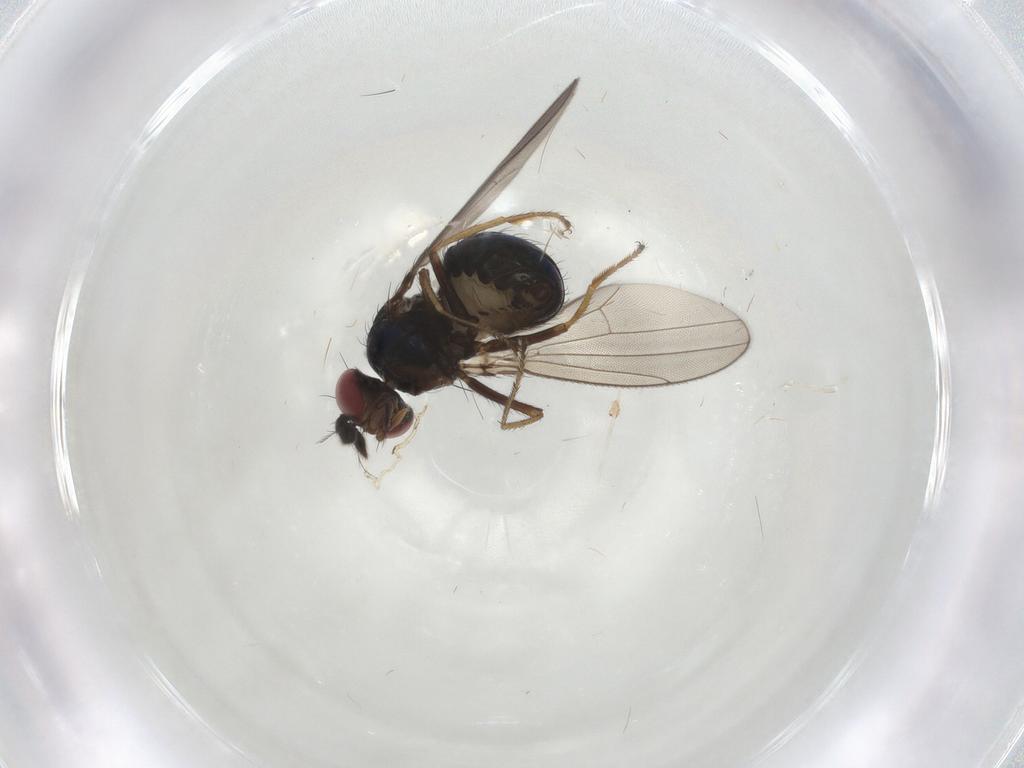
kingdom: Animalia
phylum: Arthropoda
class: Insecta
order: Diptera
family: Ephydridae
